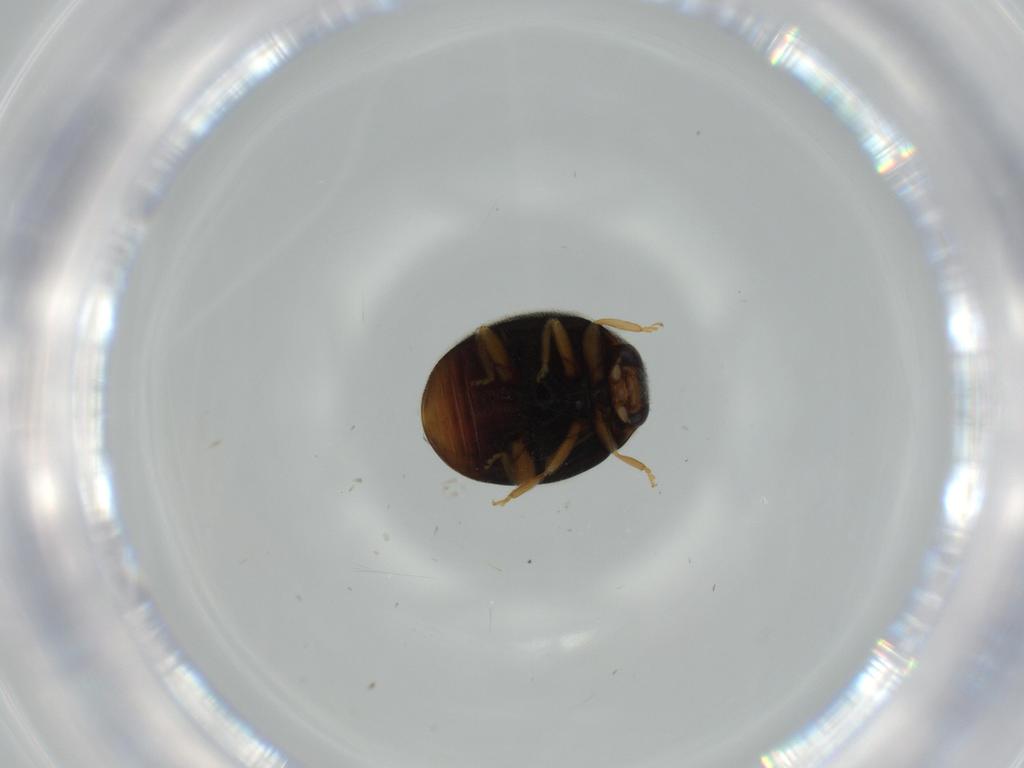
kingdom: Animalia
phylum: Arthropoda
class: Insecta
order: Coleoptera
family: Coccinellidae
